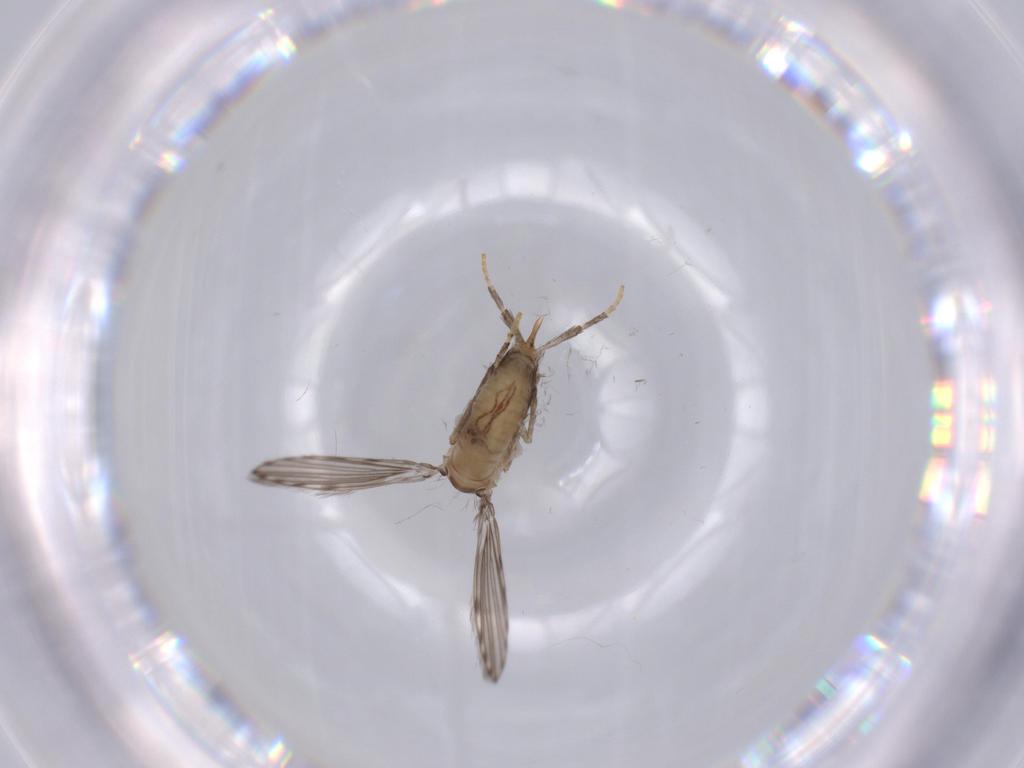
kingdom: Animalia
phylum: Arthropoda
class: Insecta
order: Diptera
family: Psychodidae
